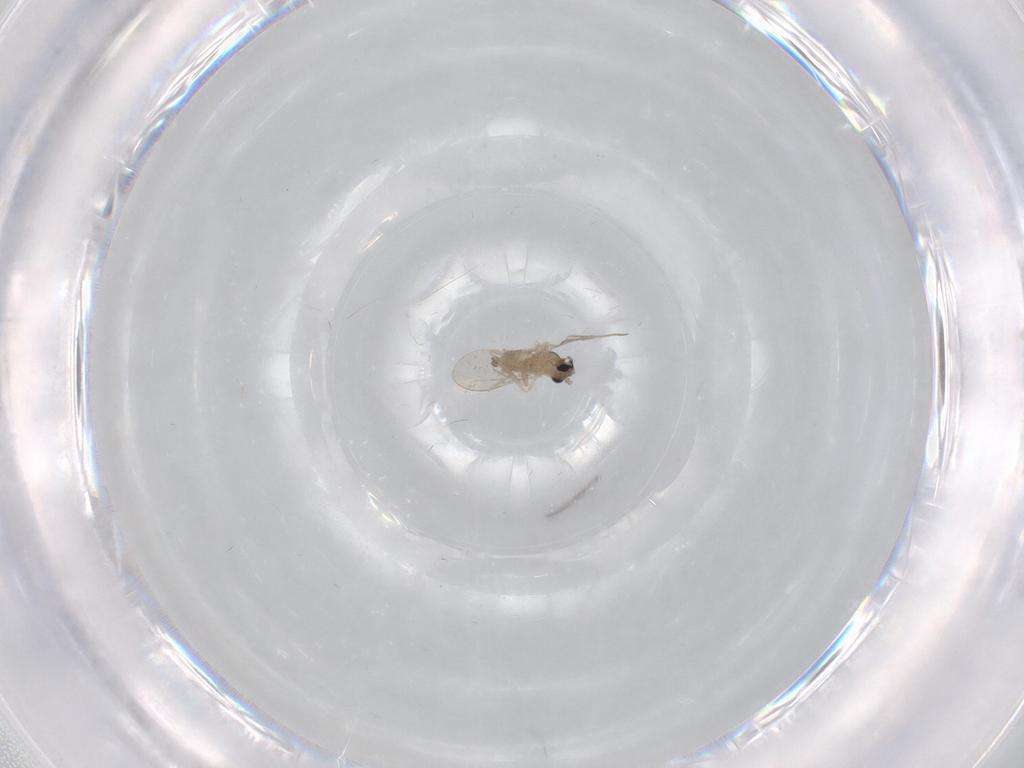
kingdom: Animalia
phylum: Arthropoda
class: Insecta
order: Diptera
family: Cecidomyiidae
